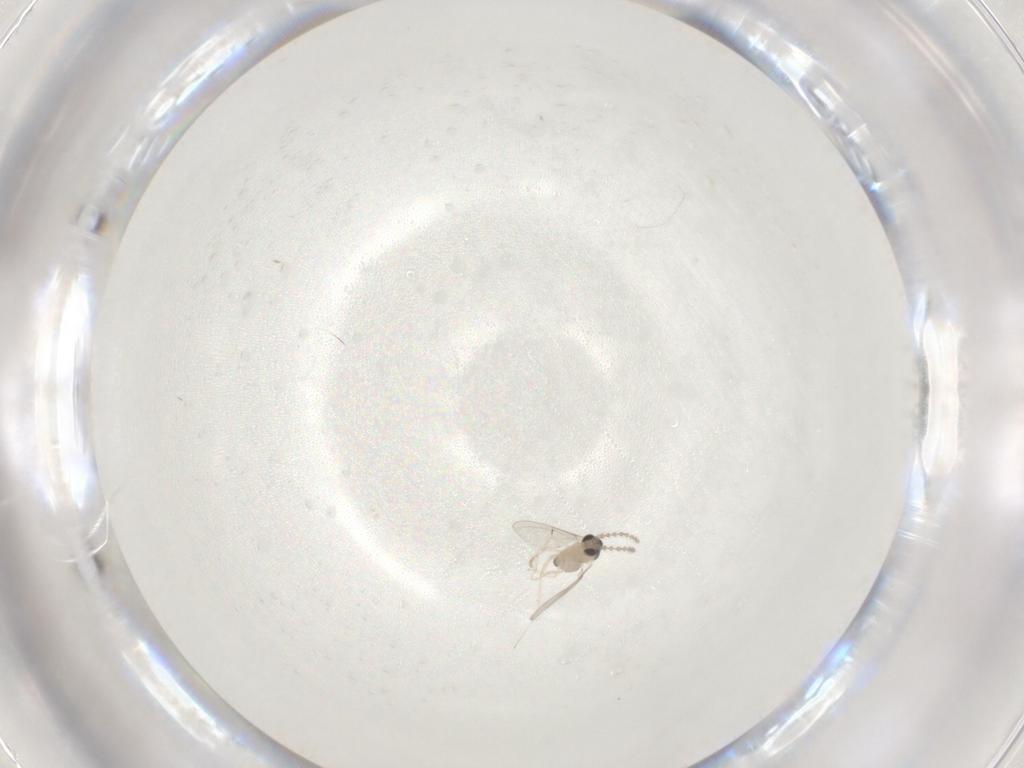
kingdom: Animalia
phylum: Arthropoda
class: Insecta
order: Diptera
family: Cecidomyiidae
